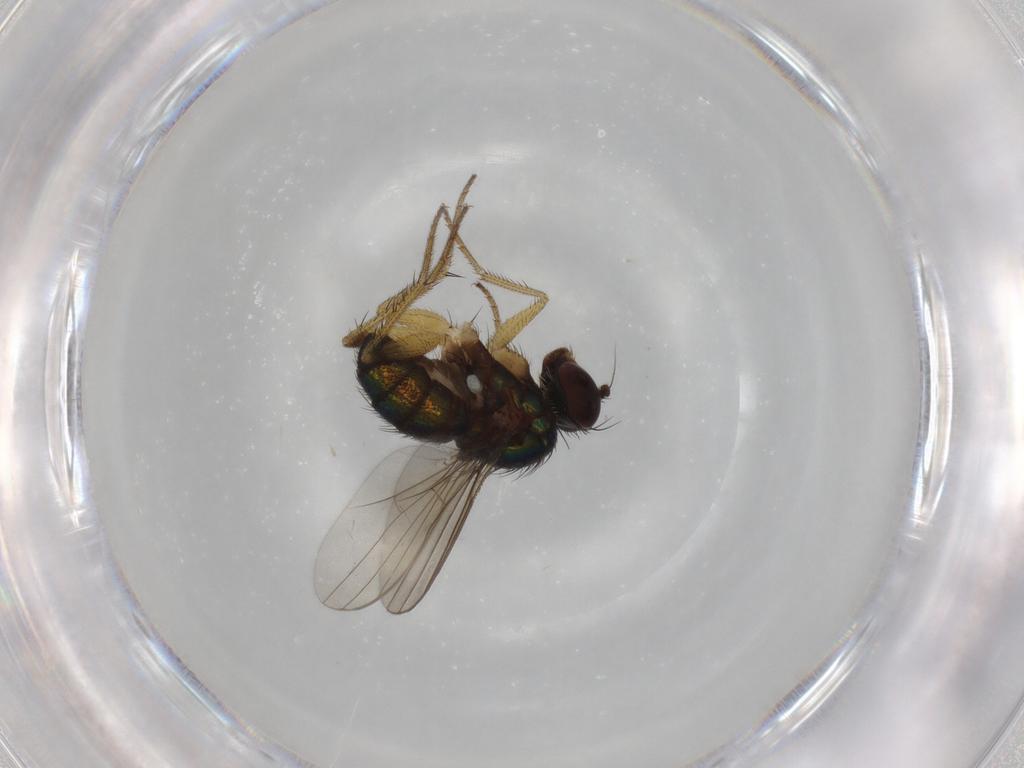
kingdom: Animalia
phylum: Arthropoda
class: Insecta
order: Diptera
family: Dolichopodidae
